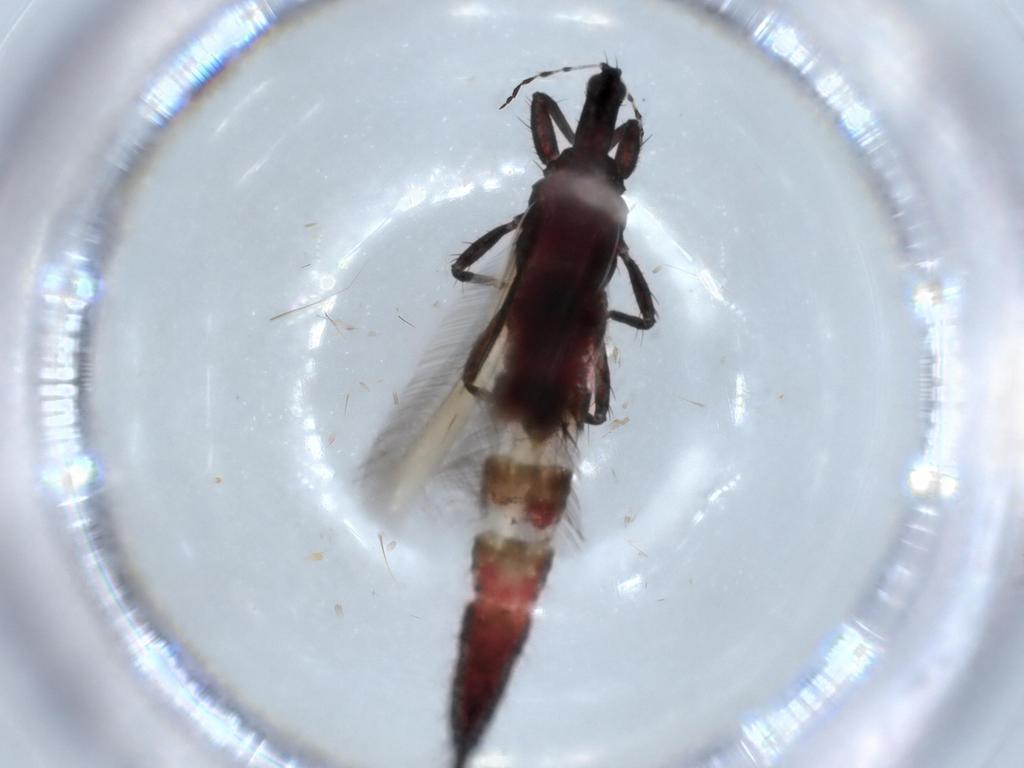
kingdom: Animalia
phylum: Arthropoda
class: Insecta
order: Thysanoptera
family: Phlaeothripidae
